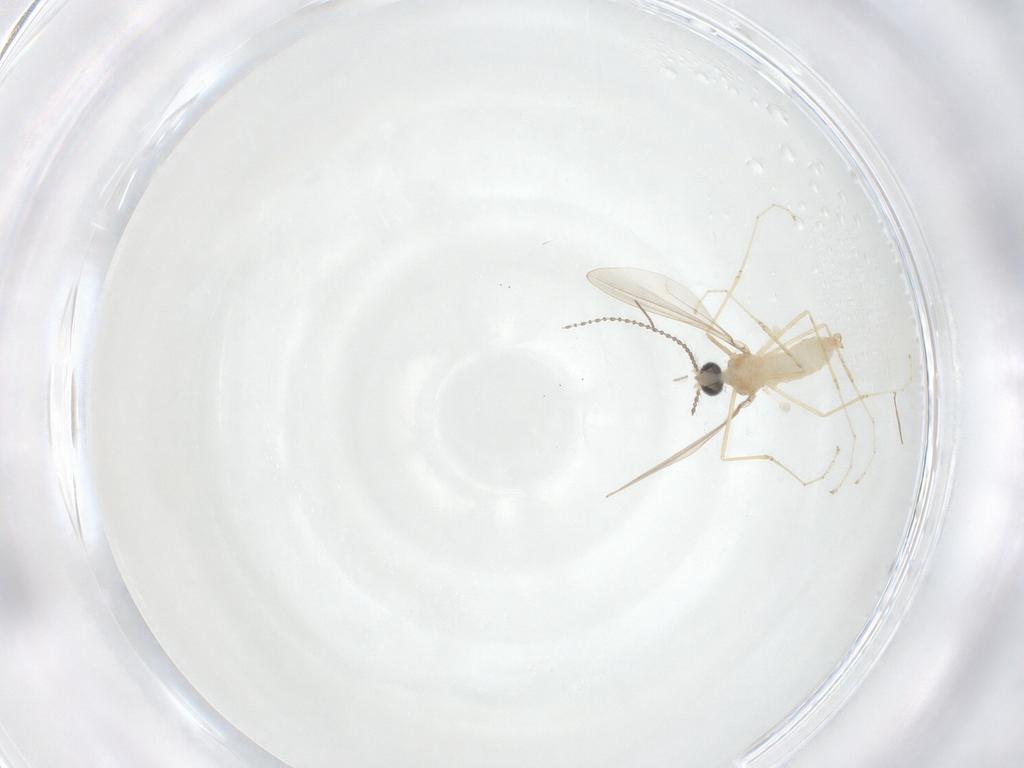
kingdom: Animalia
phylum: Arthropoda
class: Insecta
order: Diptera
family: Cecidomyiidae
